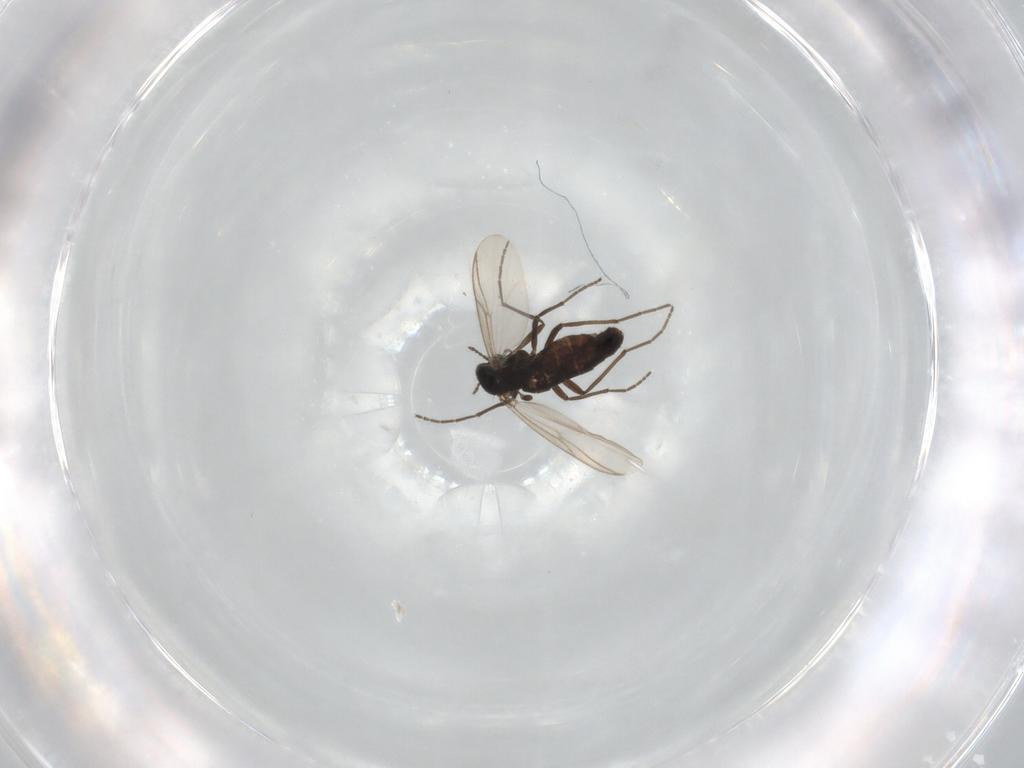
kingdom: Animalia
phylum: Arthropoda
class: Insecta
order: Diptera
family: Chironomidae
